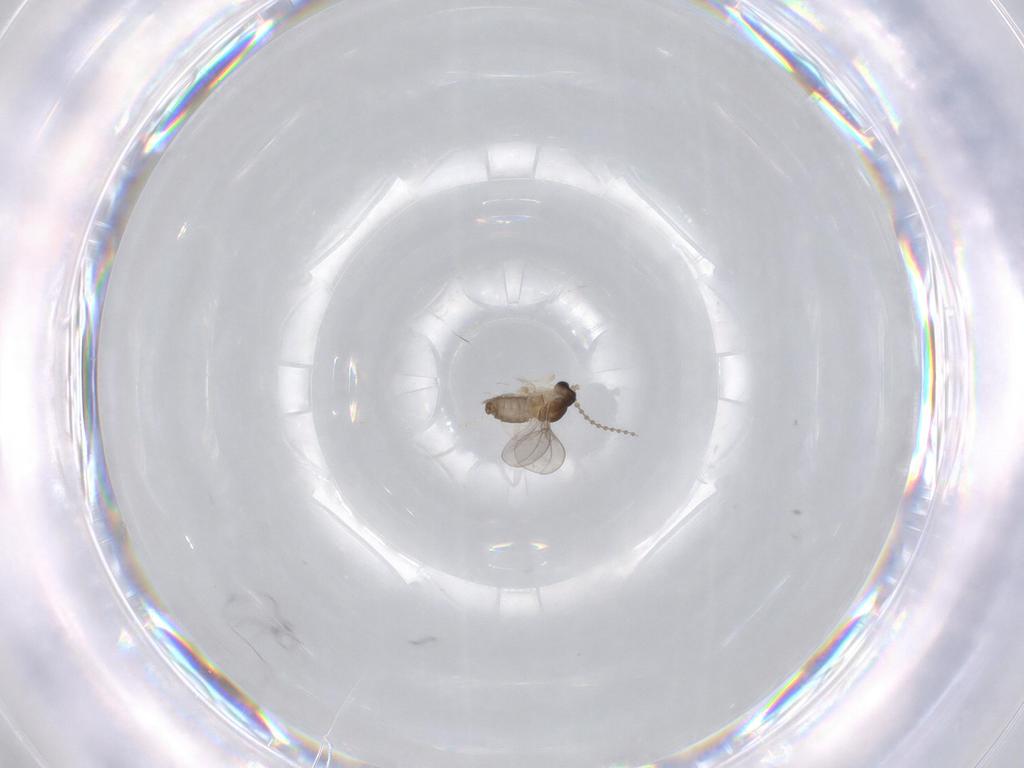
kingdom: Animalia
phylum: Arthropoda
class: Insecta
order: Diptera
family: Cecidomyiidae
